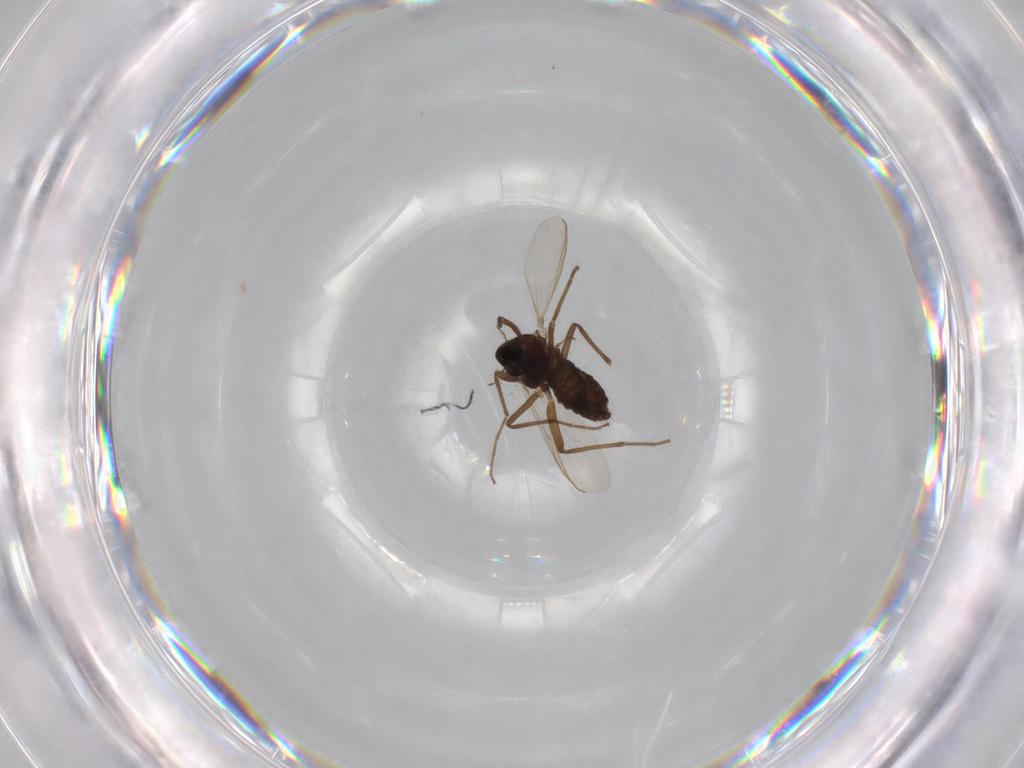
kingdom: Animalia
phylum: Arthropoda
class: Insecta
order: Diptera
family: Chironomidae
